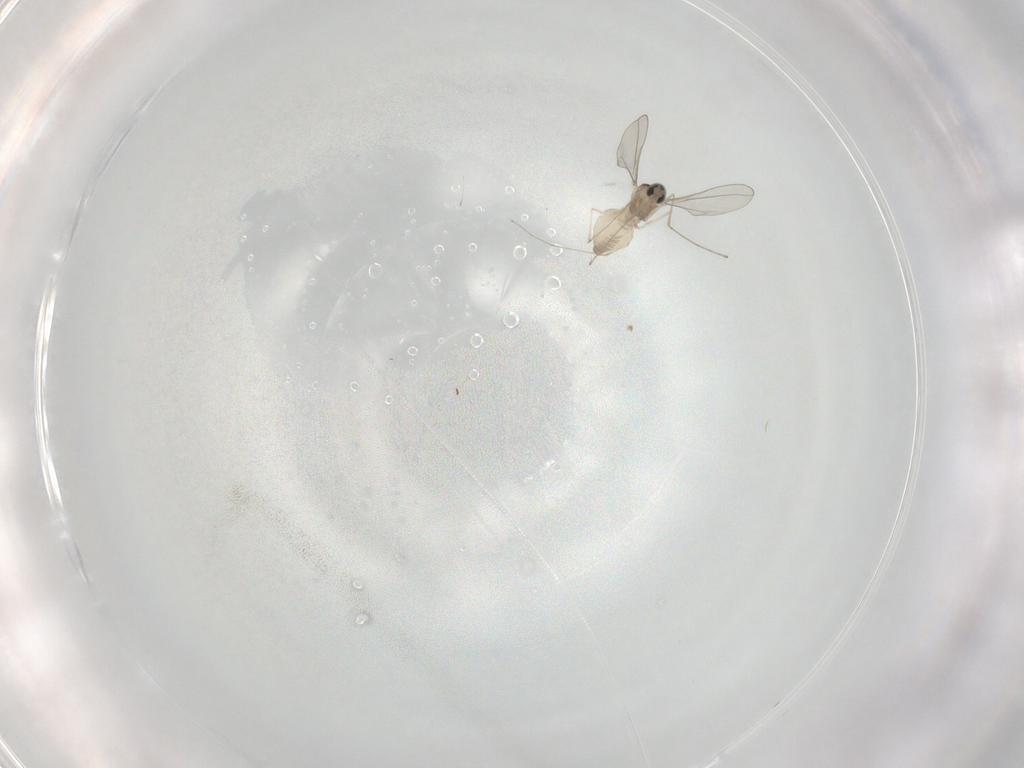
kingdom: Animalia
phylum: Arthropoda
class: Insecta
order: Diptera
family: Cecidomyiidae
